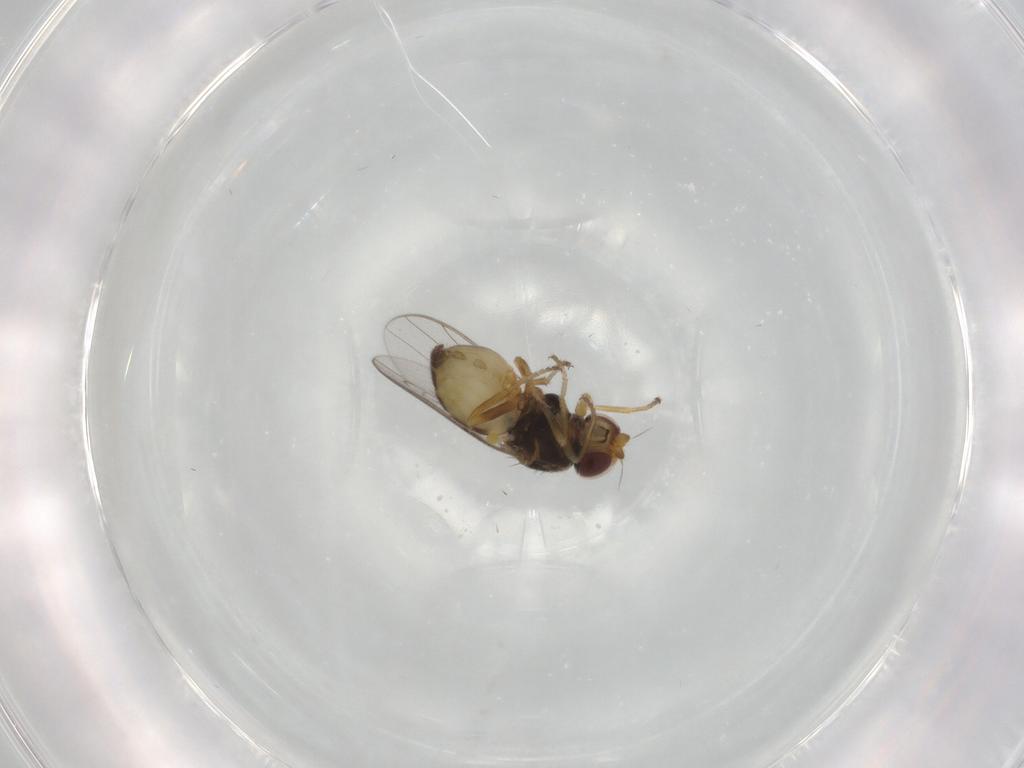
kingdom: Animalia
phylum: Arthropoda
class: Insecta
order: Diptera
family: Chloropidae
